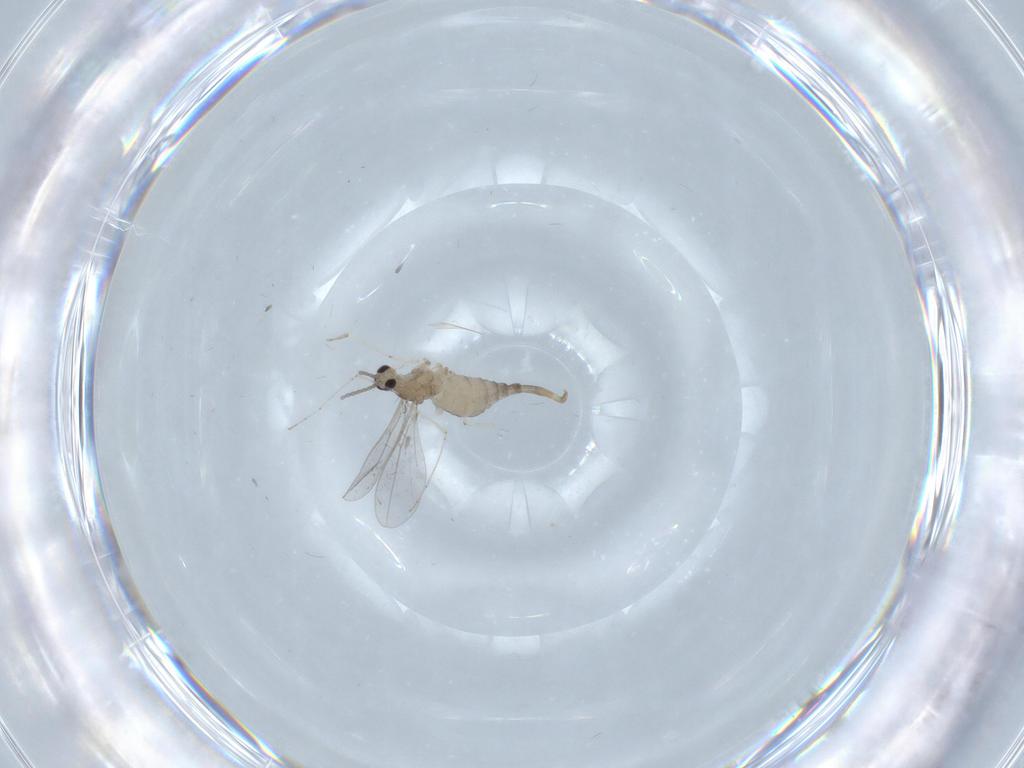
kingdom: Animalia
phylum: Arthropoda
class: Insecta
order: Diptera
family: Cecidomyiidae
